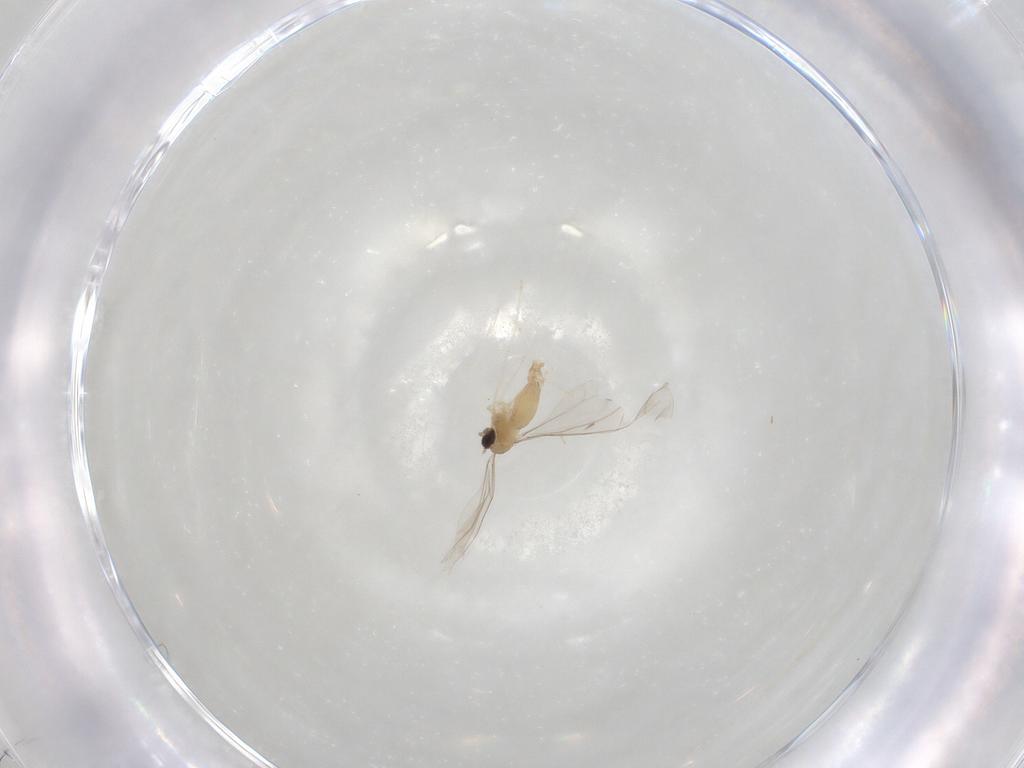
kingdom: Animalia
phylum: Arthropoda
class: Insecta
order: Diptera
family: Cecidomyiidae
